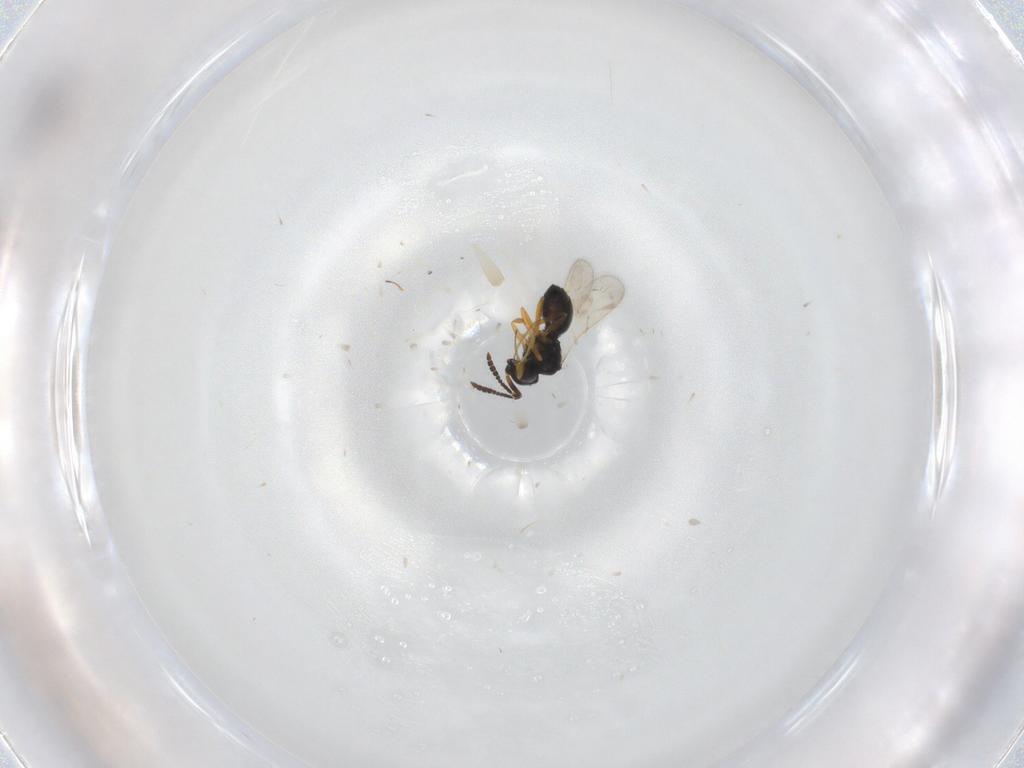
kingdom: Animalia
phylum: Arthropoda
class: Insecta
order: Hymenoptera
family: Scelionidae
